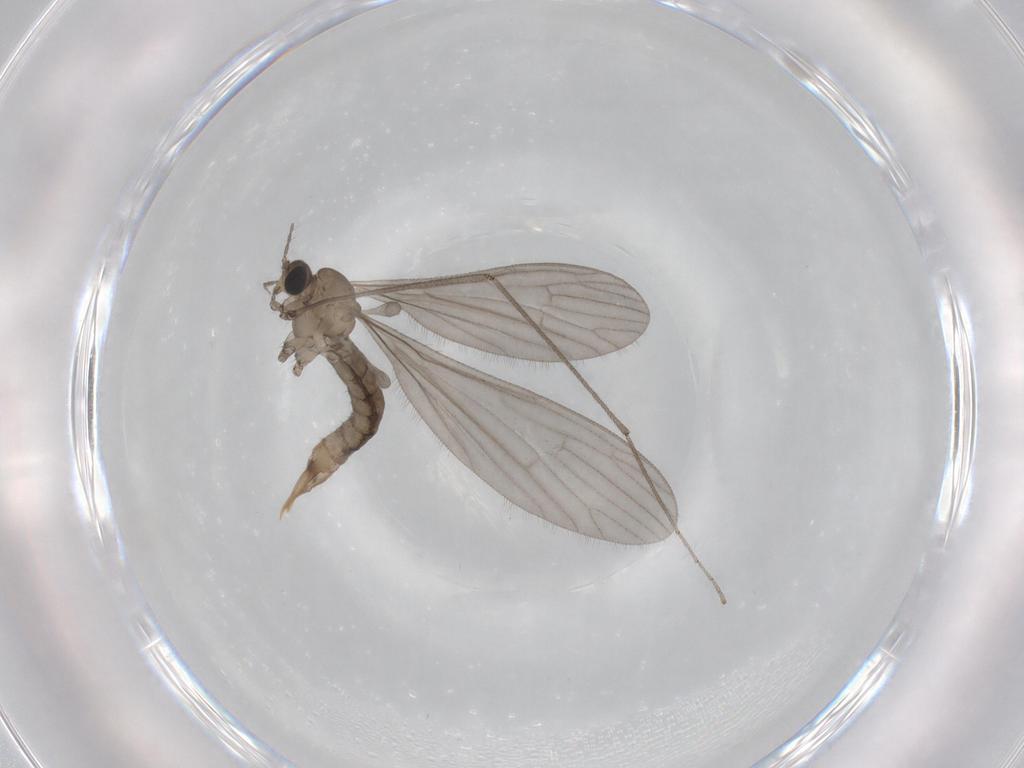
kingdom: Animalia
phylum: Arthropoda
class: Insecta
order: Diptera
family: Limoniidae
